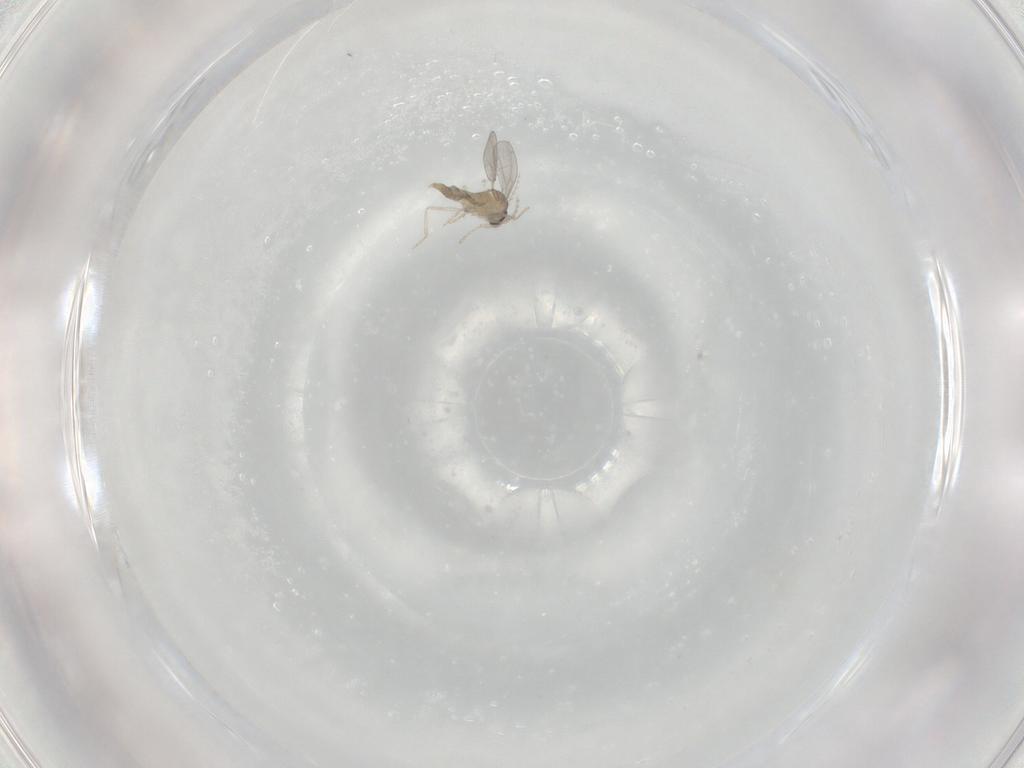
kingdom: Animalia
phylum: Arthropoda
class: Insecta
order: Diptera
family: Cecidomyiidae
